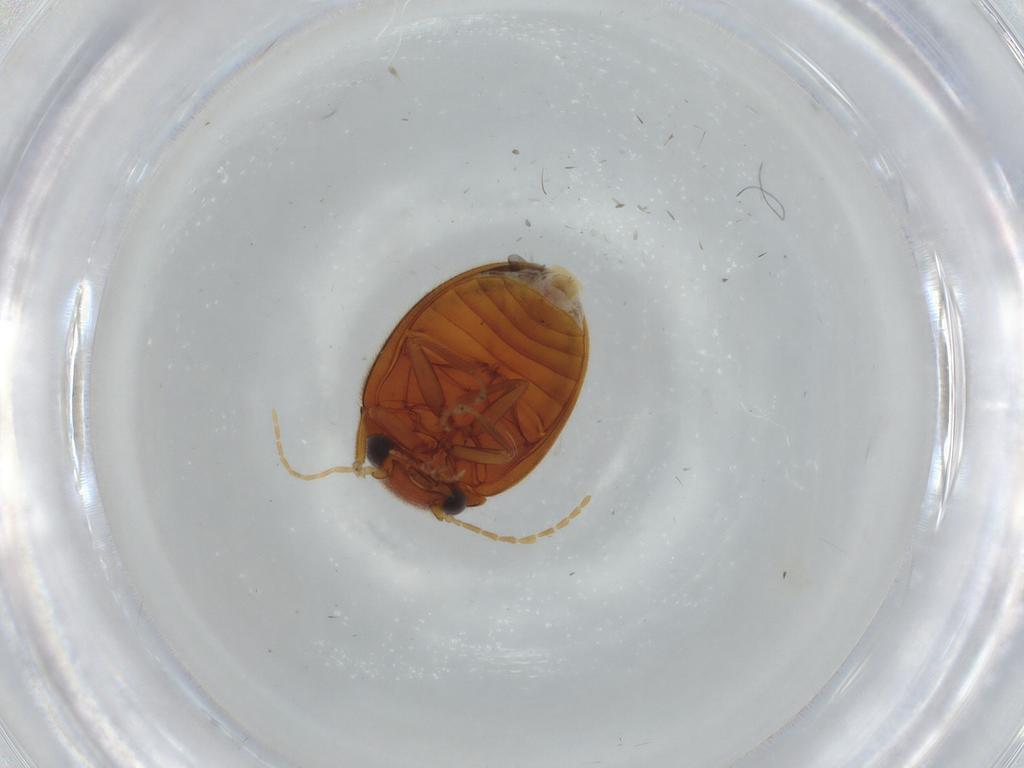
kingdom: Animalia
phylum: Arthropoda
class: Insecta
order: Coleoptera
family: Scirtidae
